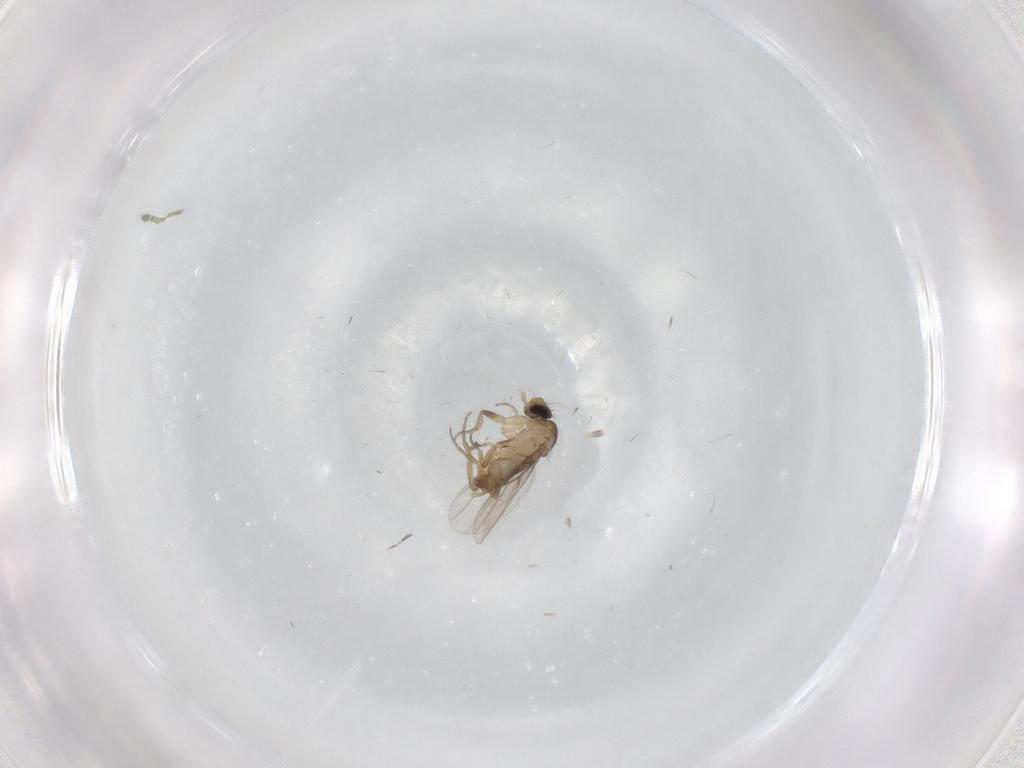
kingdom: Animalia
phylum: Arthropoda
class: Insecta
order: Diptera
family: Phoridae
